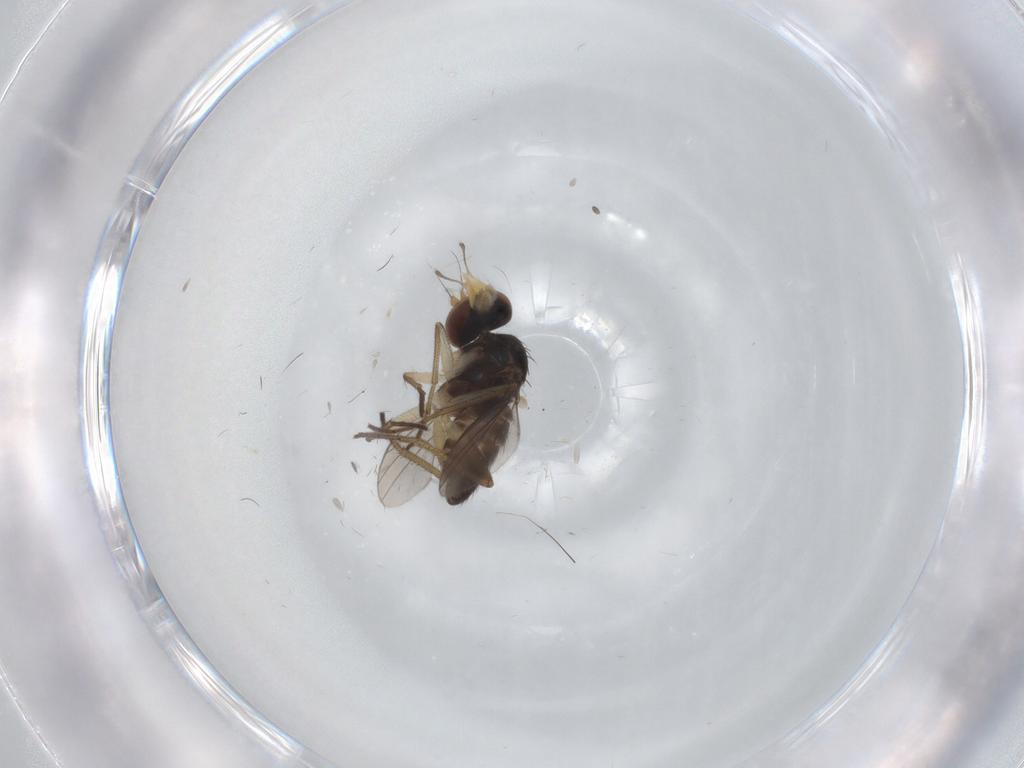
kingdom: Animalia
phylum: Arthropoda
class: Insecta
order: Diptera
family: Dolichopodidae
